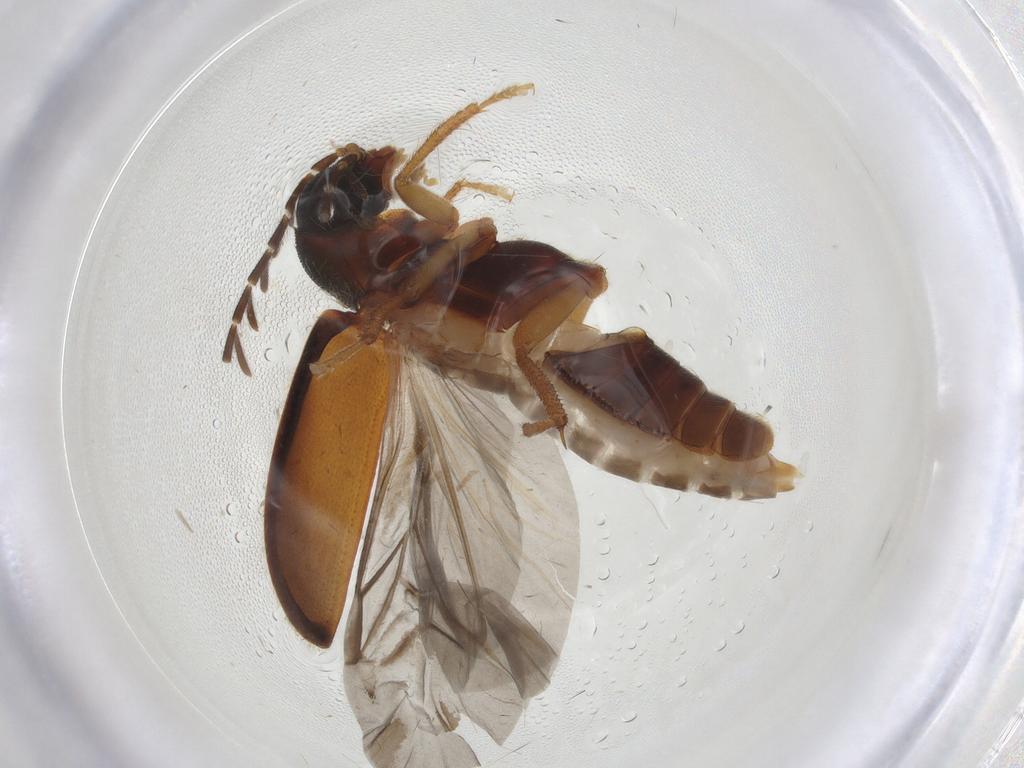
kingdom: Animalia
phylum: Arthropoda
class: Insecta
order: Coleoptera
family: Ptilodactylidae
